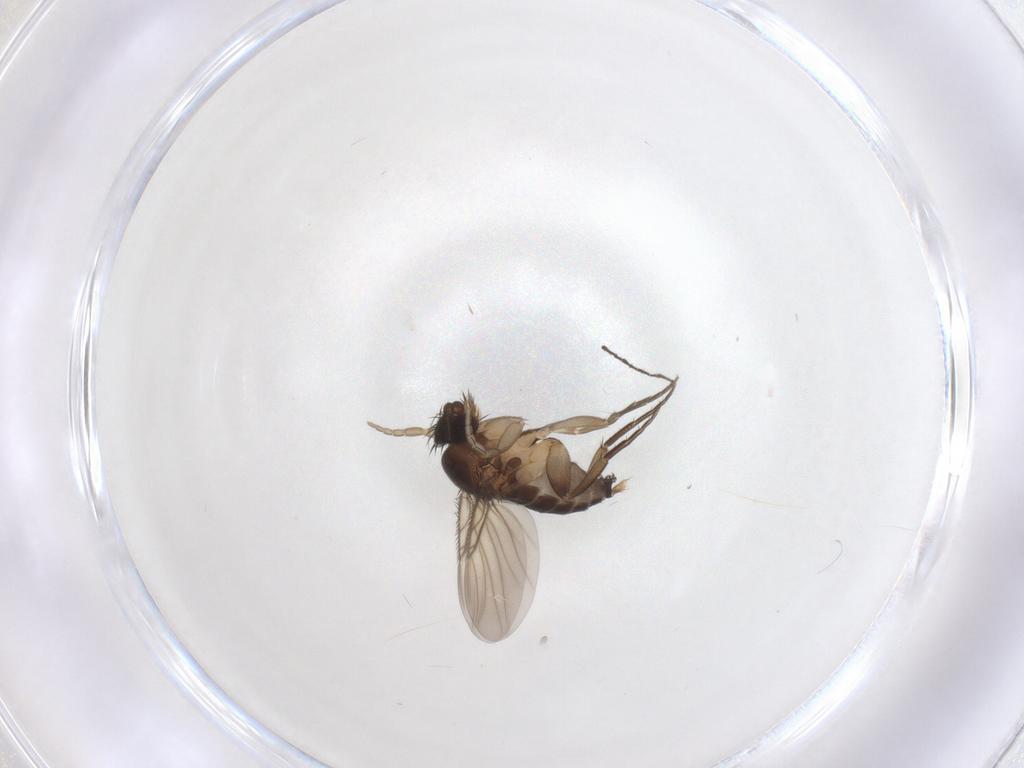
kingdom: Animalia
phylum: Arthropoda
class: Insecta
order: Diptera
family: Phoridae
